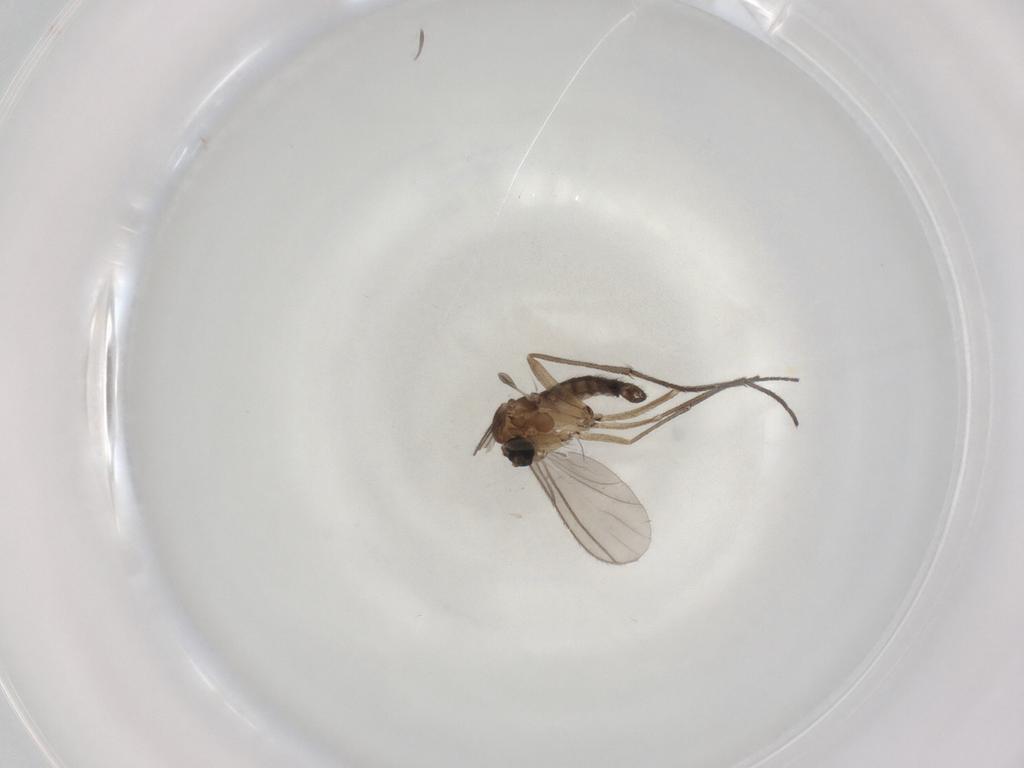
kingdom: Animalia
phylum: Arthropoda
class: Insecta
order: Diptera
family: Sciaridae
